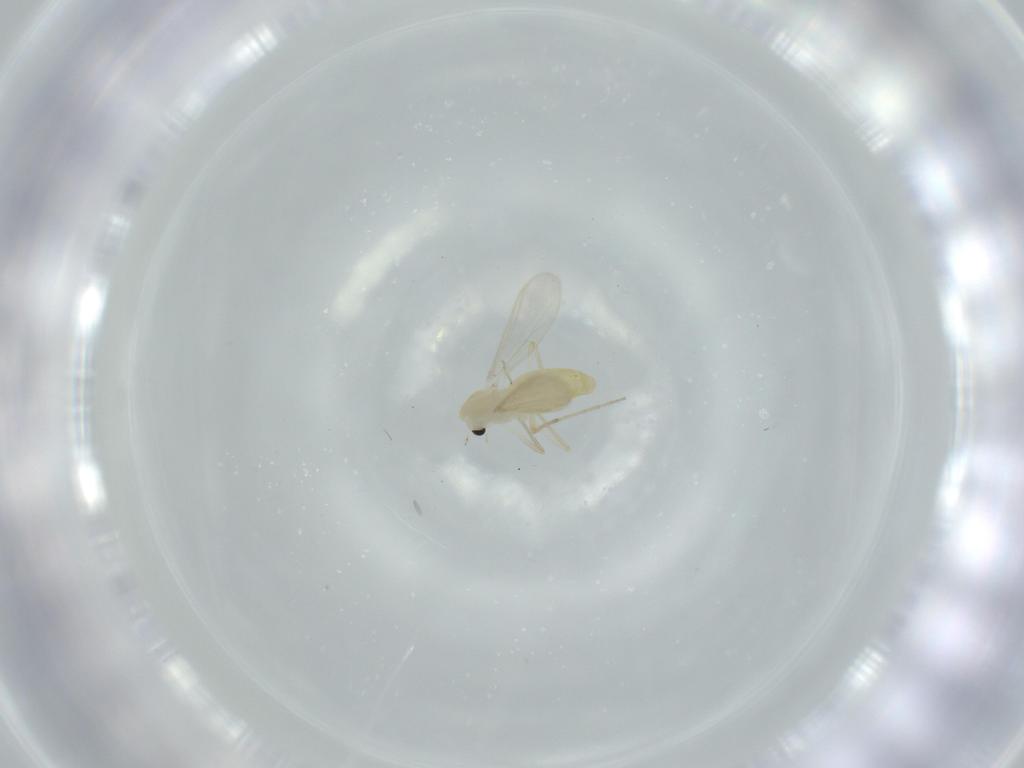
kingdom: Animalia
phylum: Arthropoda
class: Insecta
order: Diptera
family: Chironomidae
